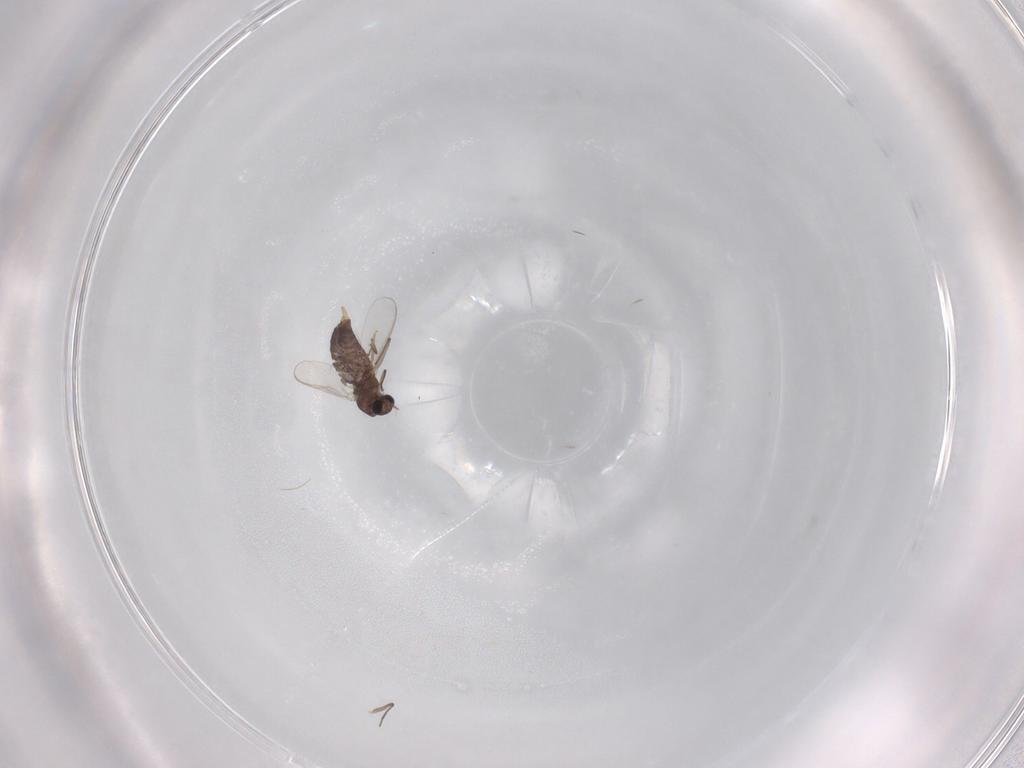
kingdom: Animalia
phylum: Arthropoda
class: Insecta
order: Diptera
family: Chironomidae
